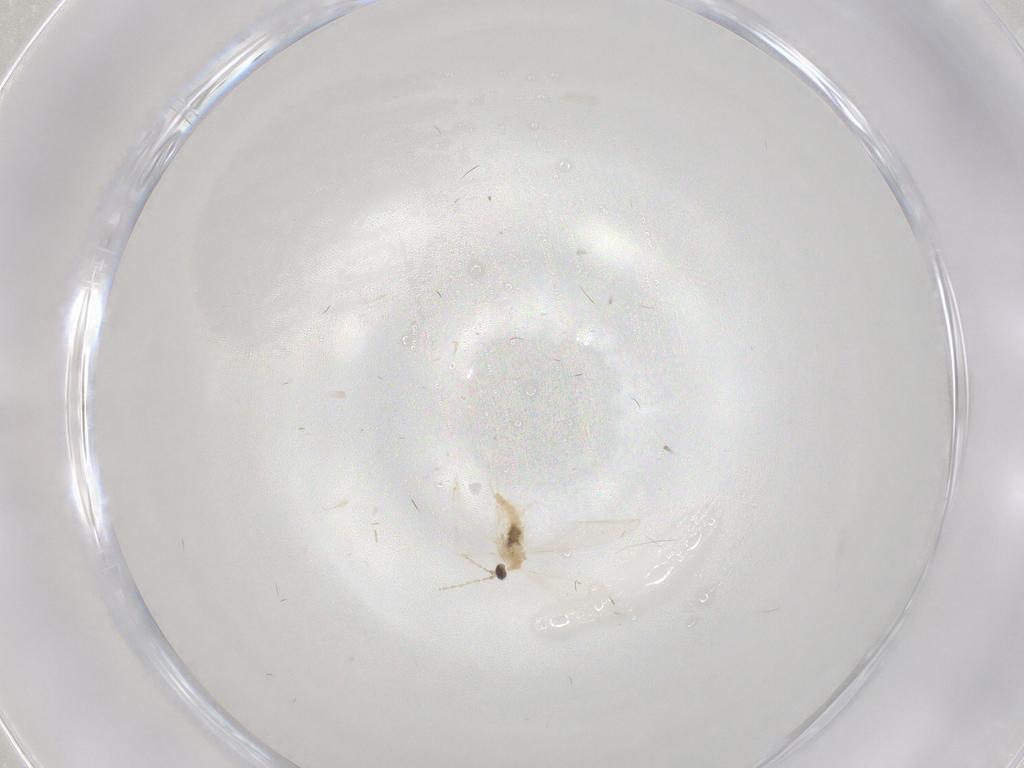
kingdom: Animalia
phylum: Arthropoda
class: Insecta
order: Diptera
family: Cecidomyiidae
